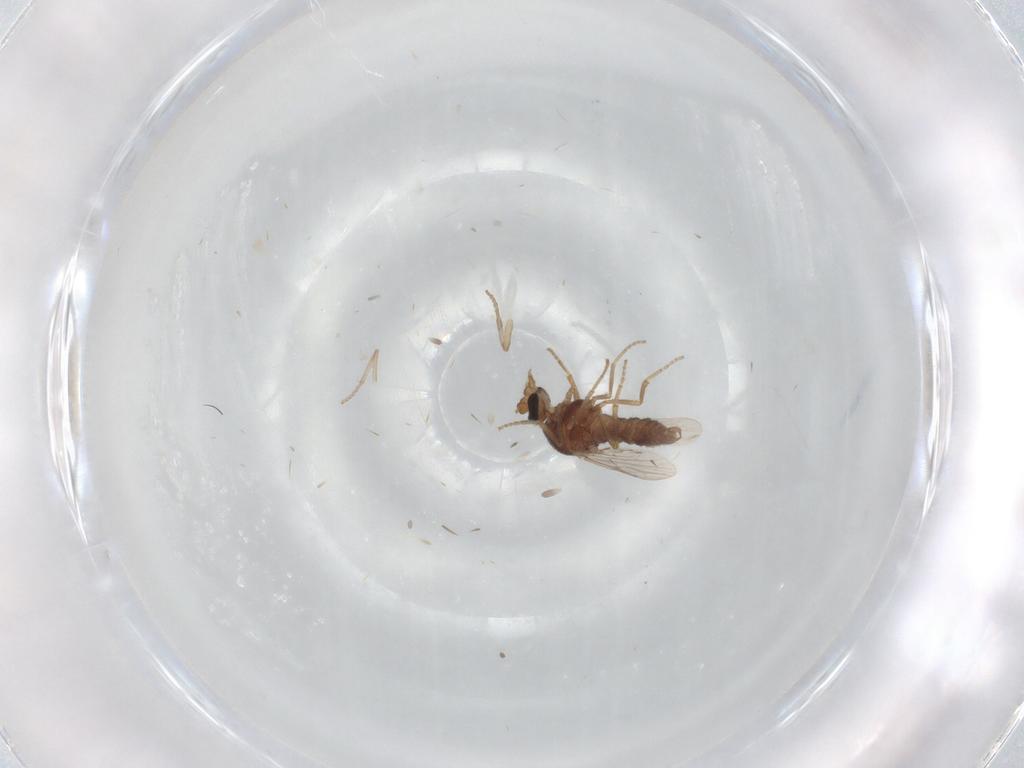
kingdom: Animalia
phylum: Arthropoda
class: Insecta
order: Diptera
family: Ceratopogonidae
